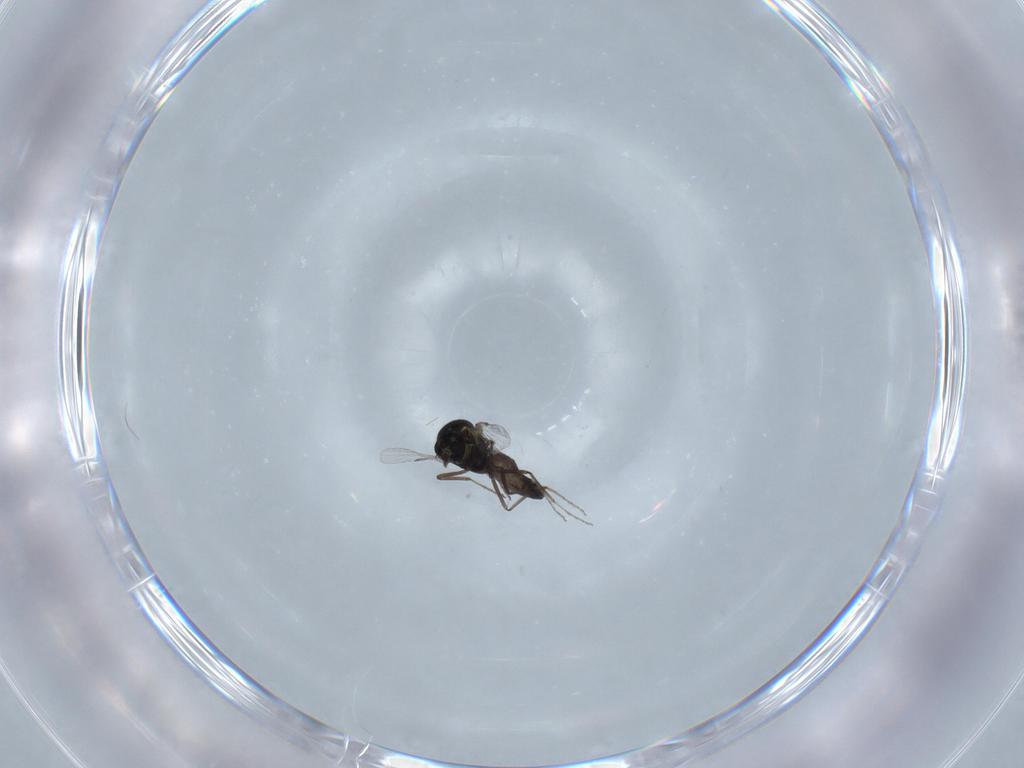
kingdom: Animalia
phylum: Arthropoda
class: Insecta
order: Diptera
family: Ceratopogonidae
